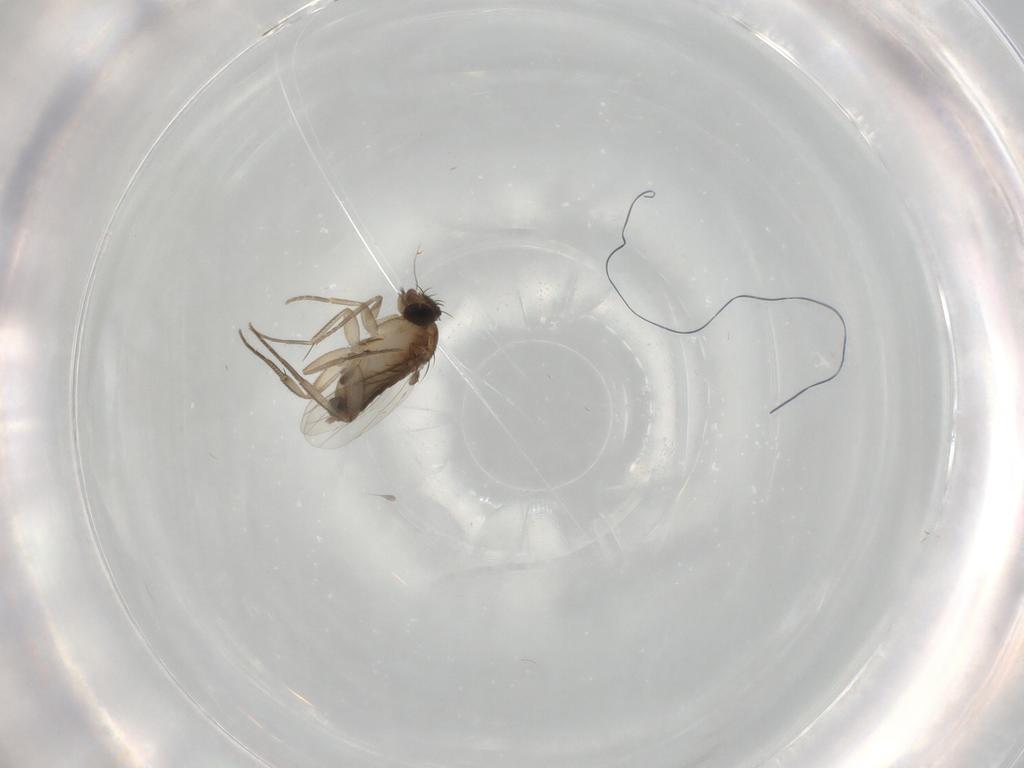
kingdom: Animalia
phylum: Arthropoda
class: Insecta
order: Diptera
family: Phoridae
